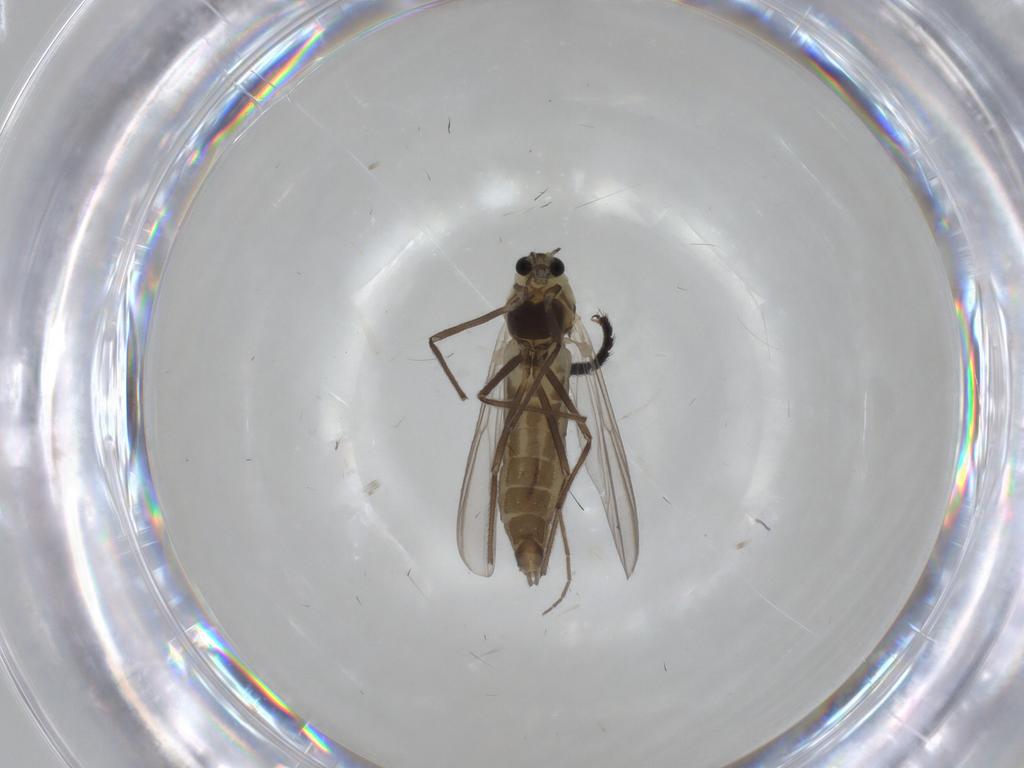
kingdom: Animalia
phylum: Arthropoda
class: Insecta
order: Diptera
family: Chironomidae
